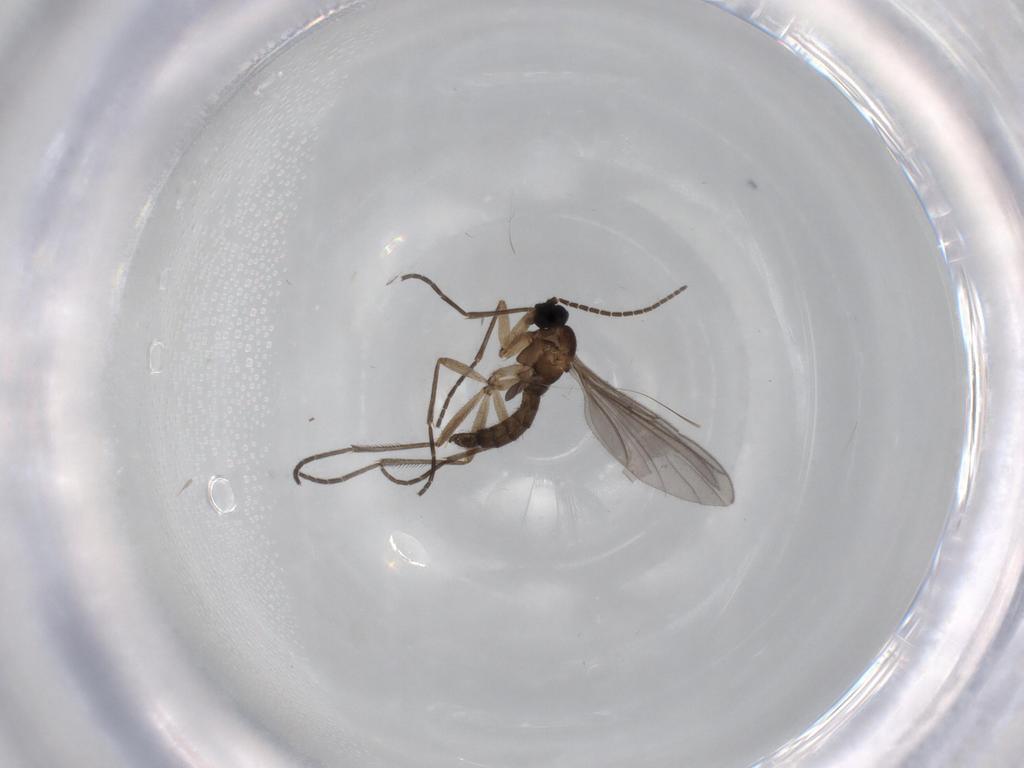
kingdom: Animalia
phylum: Arthropoda
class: Insecta
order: Diptera
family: Sciaridae
